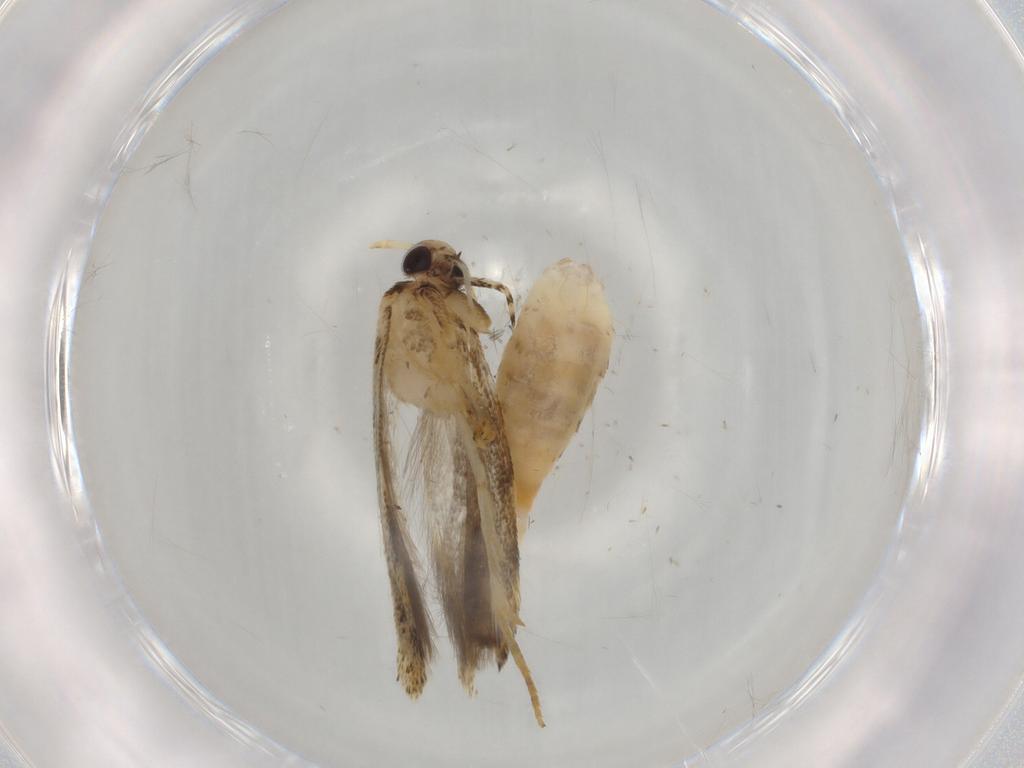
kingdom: Animalia
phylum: Arthropoda
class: Insecta
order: Lepidoptera
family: Gelechiidae
